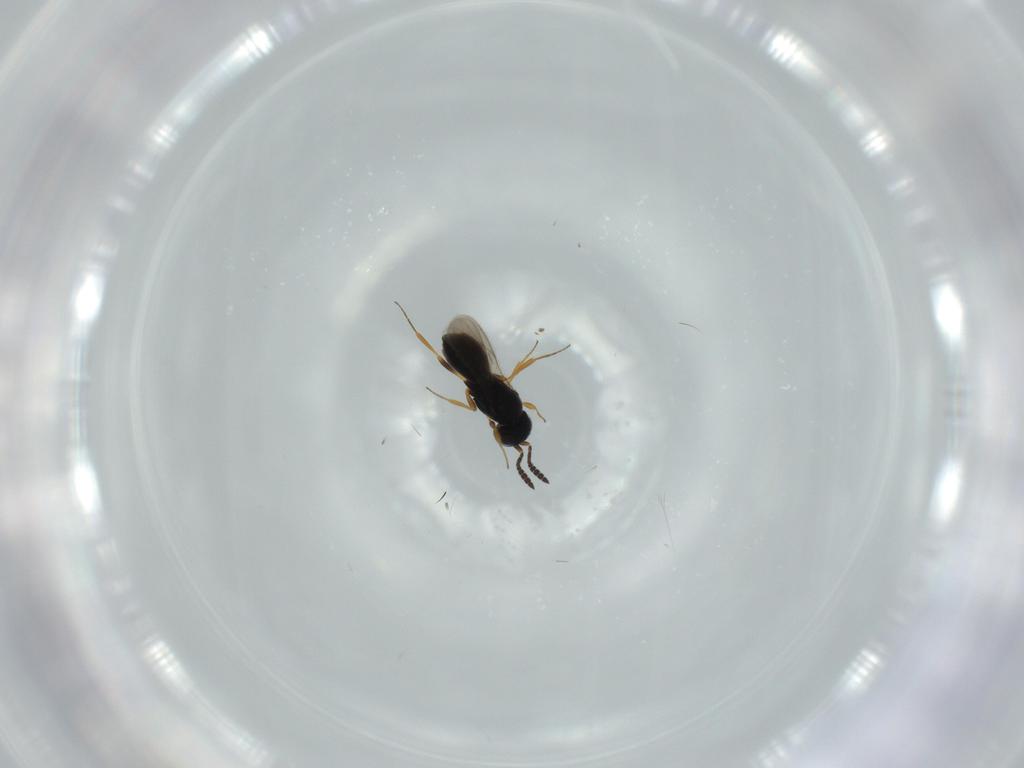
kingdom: Animalia
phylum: Arthropoda
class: Insecta
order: Hymenoptera
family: Scelionidae
